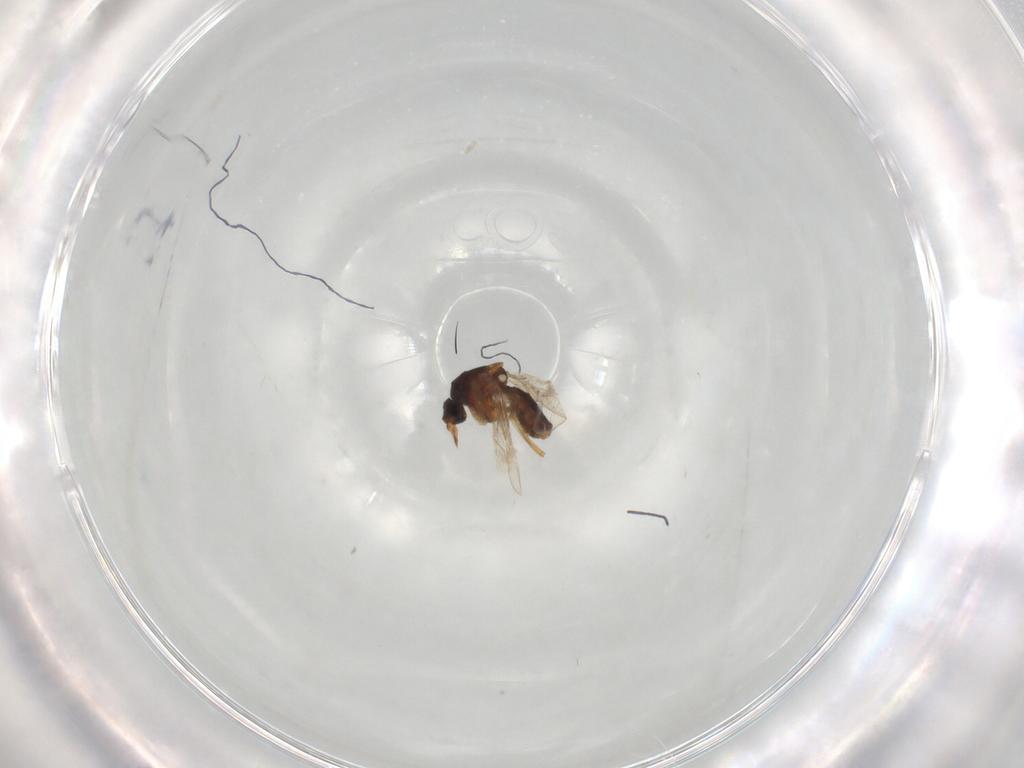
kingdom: Animalia
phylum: Arthropoda
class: Insecta
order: Diptera
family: Ceratopogonidae
